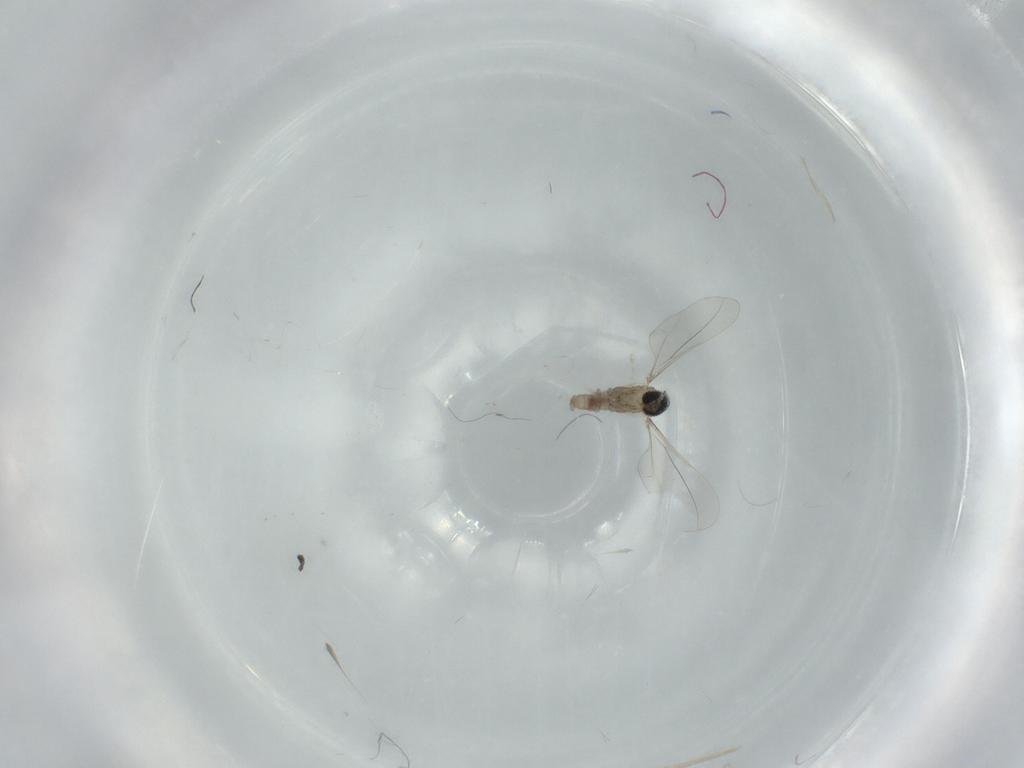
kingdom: Animalia
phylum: Arthropoda
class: Insecta
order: Diptera
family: Cecidomyiidae
